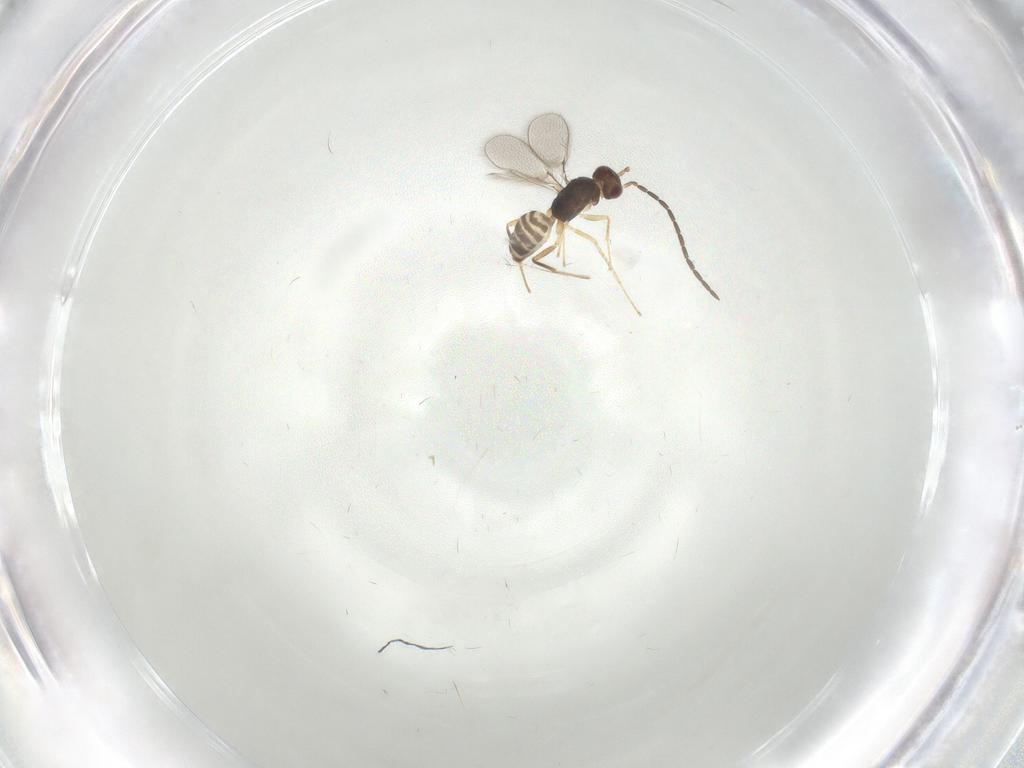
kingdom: Animalia
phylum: Arthropoda
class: Insecta
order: Hymenoptera
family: Mymaridae
